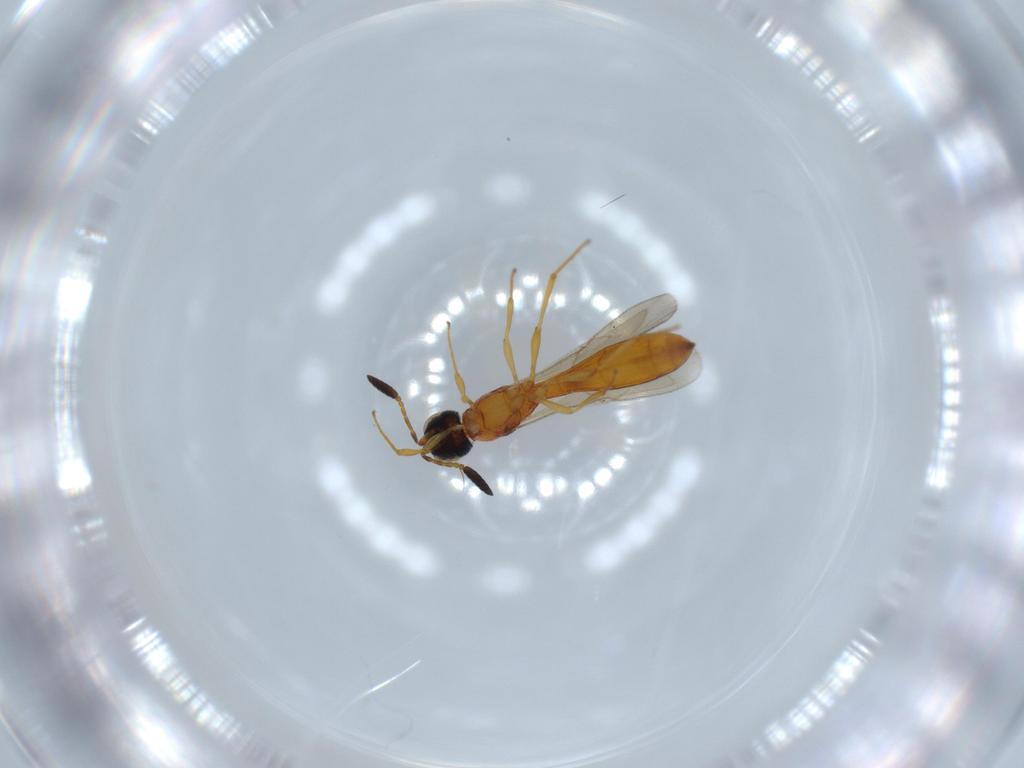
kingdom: Animalia
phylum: Arthropoda
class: Insecta
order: Hymenoptera
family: Scelionidae
